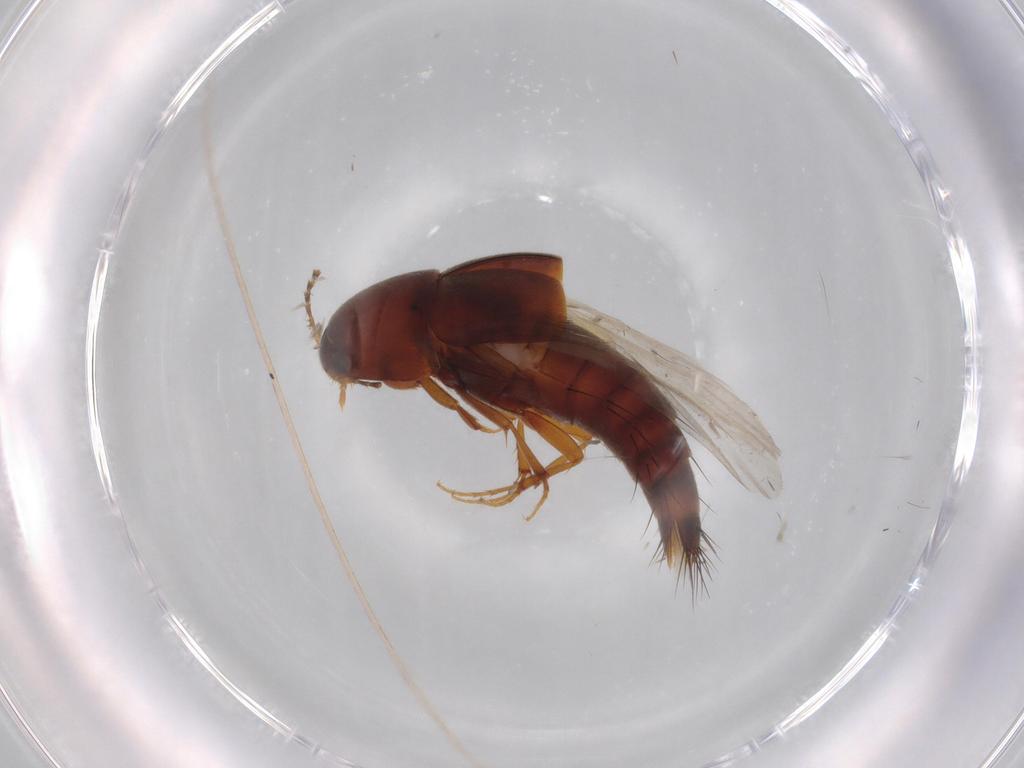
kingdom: Animalia
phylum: Arthropoda
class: Insecta
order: Coleoptera
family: Staphylinidae
